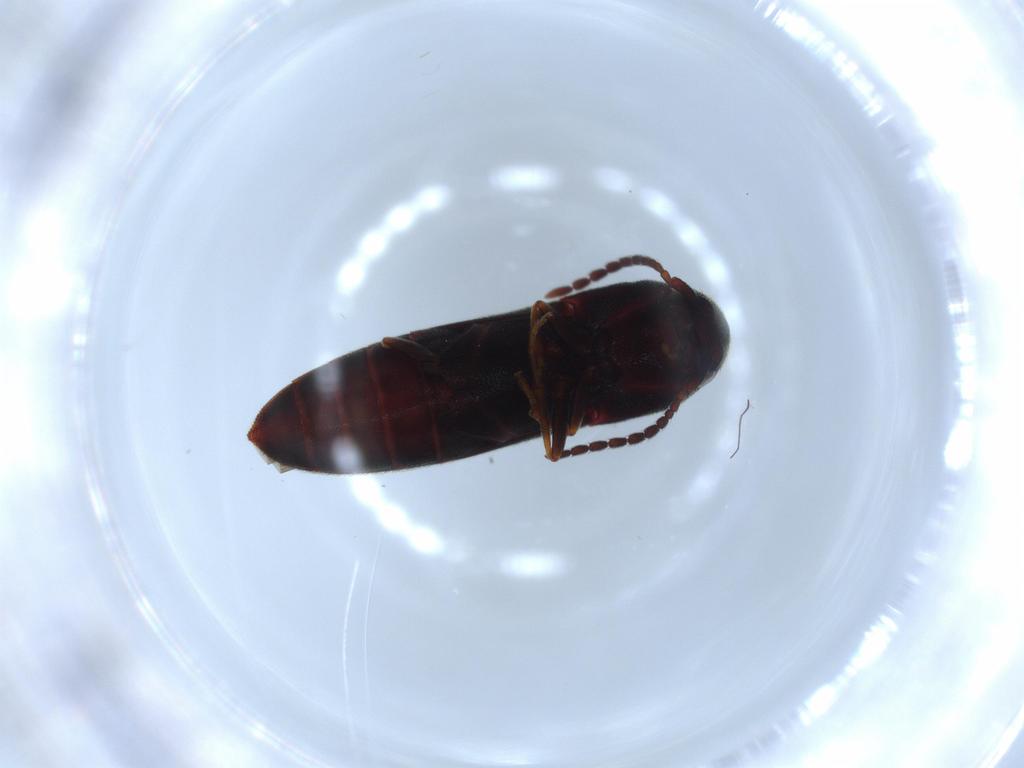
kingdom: Animalia
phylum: Arthropoda
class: Insecta
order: Coleoptera
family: Eucnemidae
